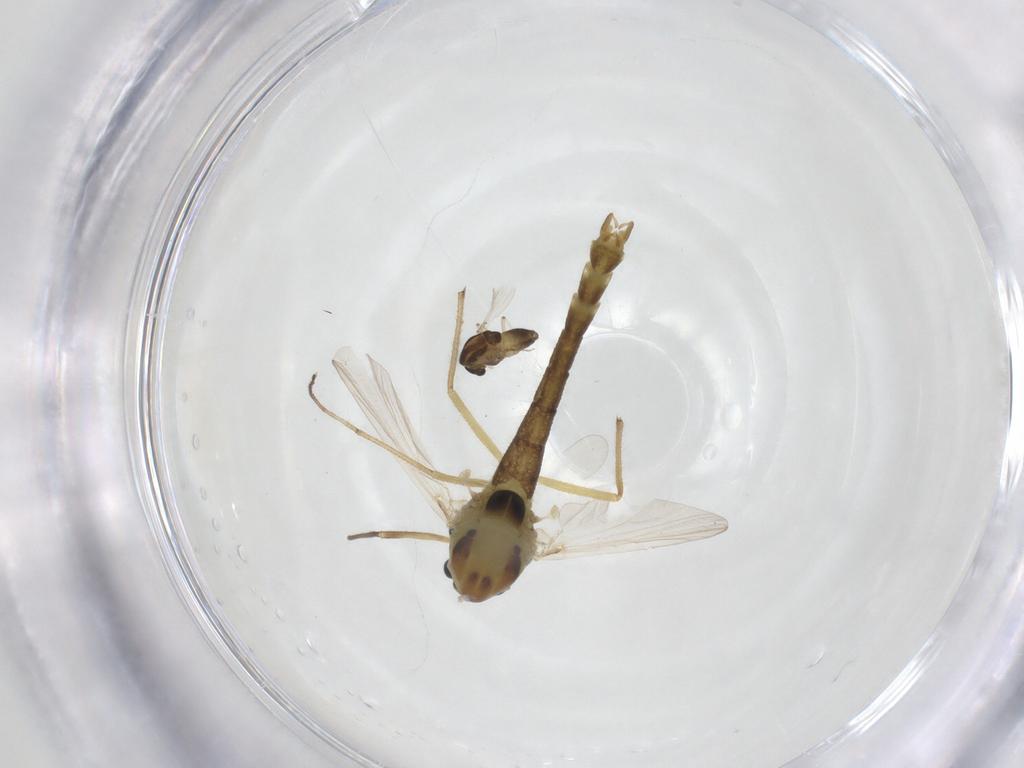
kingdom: Animalia
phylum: Arthropoda
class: Insecta
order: Diptera
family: Chironomidae
